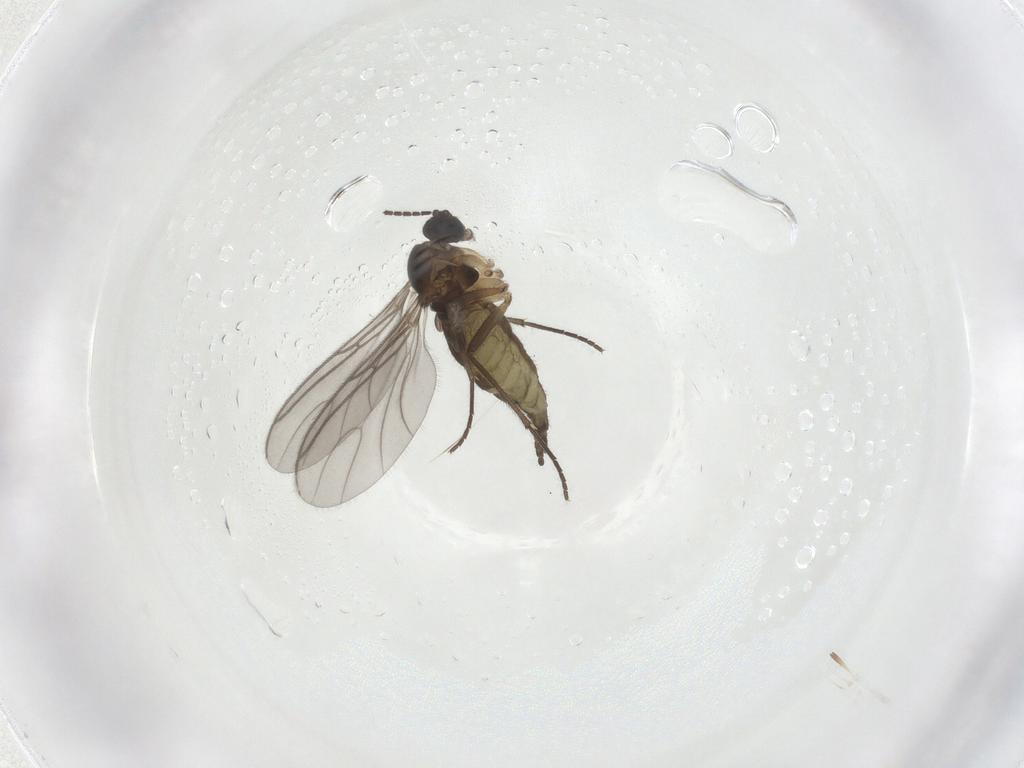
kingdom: Animalia
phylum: Arthropoda
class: Insecta
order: Diptera
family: Sciaridae
